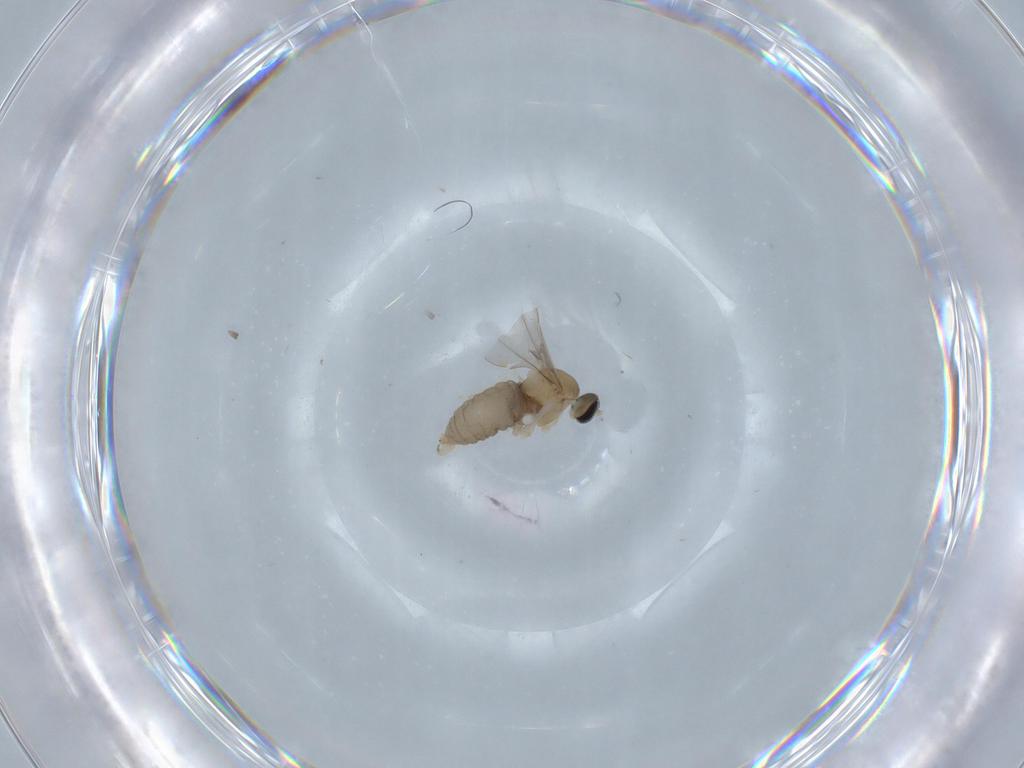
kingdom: Animalia
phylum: Arthropoda
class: Insecta
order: Diptera
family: Cecidomyiidae
